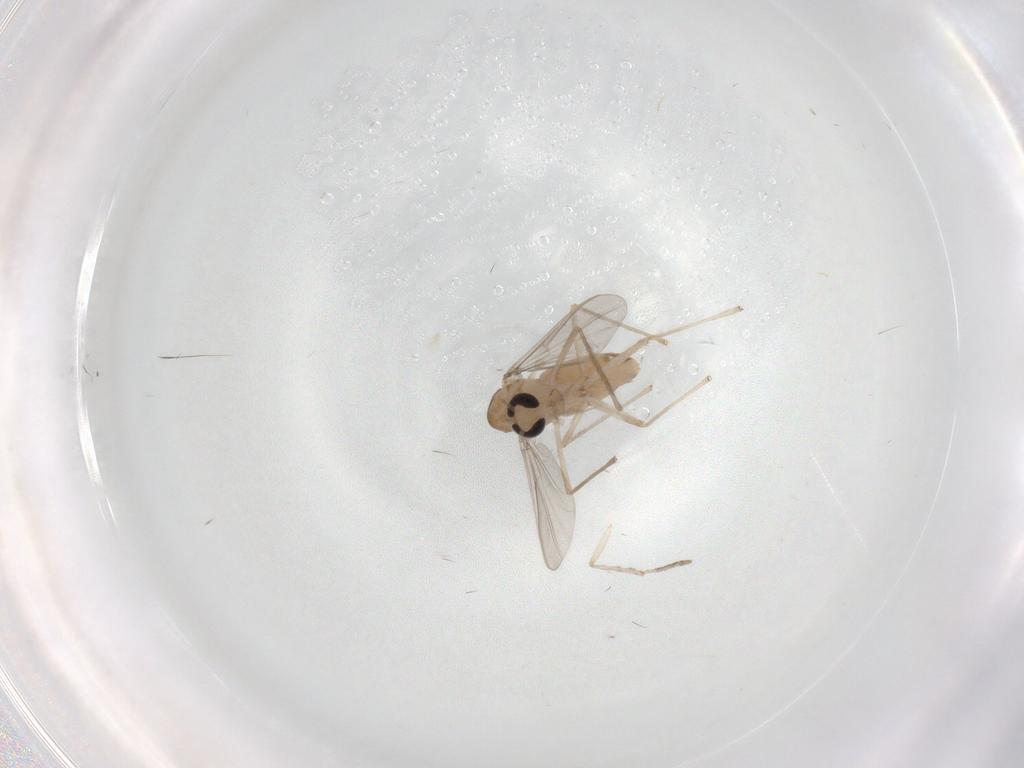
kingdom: Animalia
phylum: Arthropoda
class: Insecta
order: Diptera
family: Chironomidae
